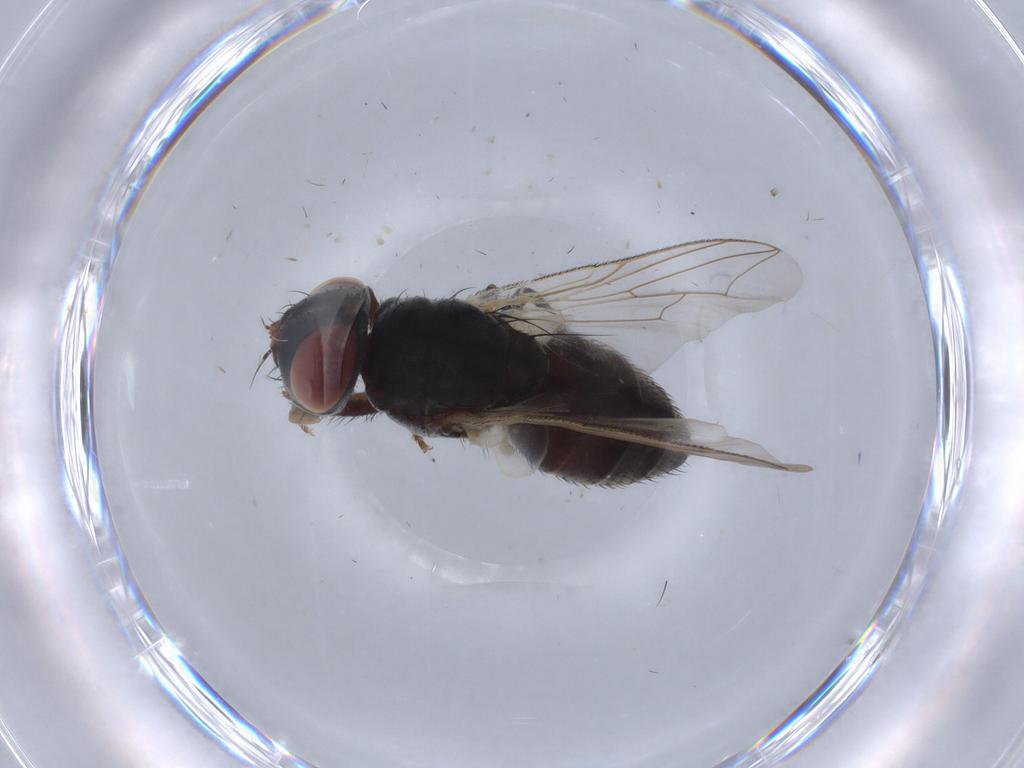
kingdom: Animalia
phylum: Arthropoda
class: Insecta
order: Diptera
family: Sarcophagidae
